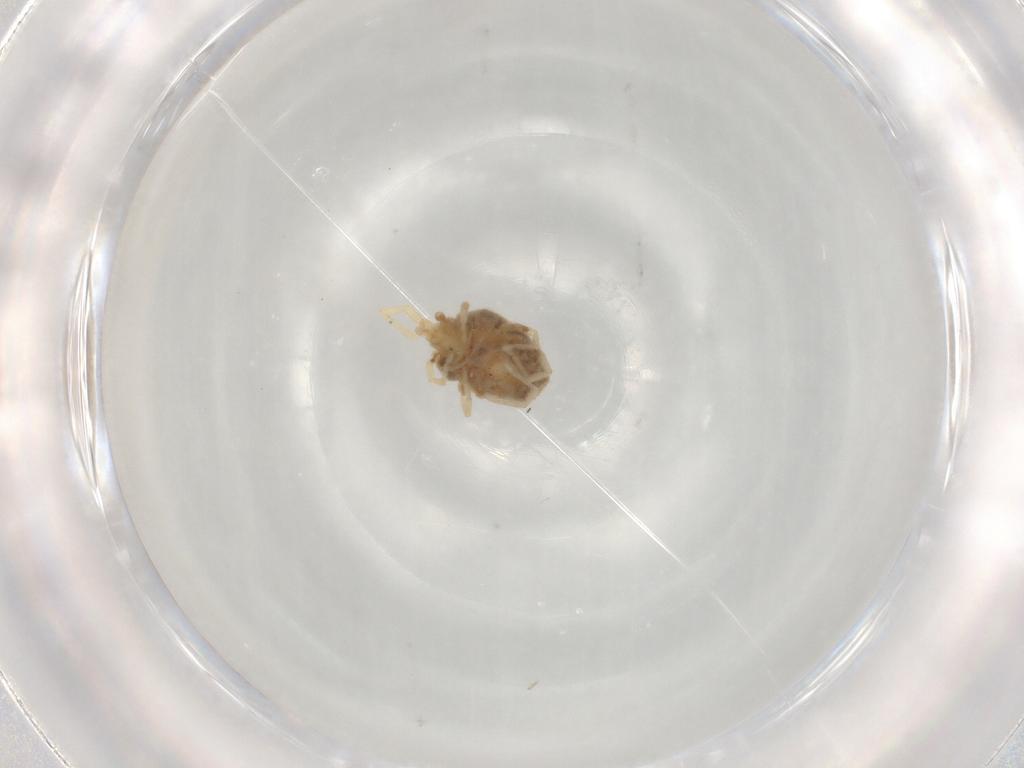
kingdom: Animalia
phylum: Arthropoda
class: Arachnida
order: Trombidiformes
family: Erythraeidae
